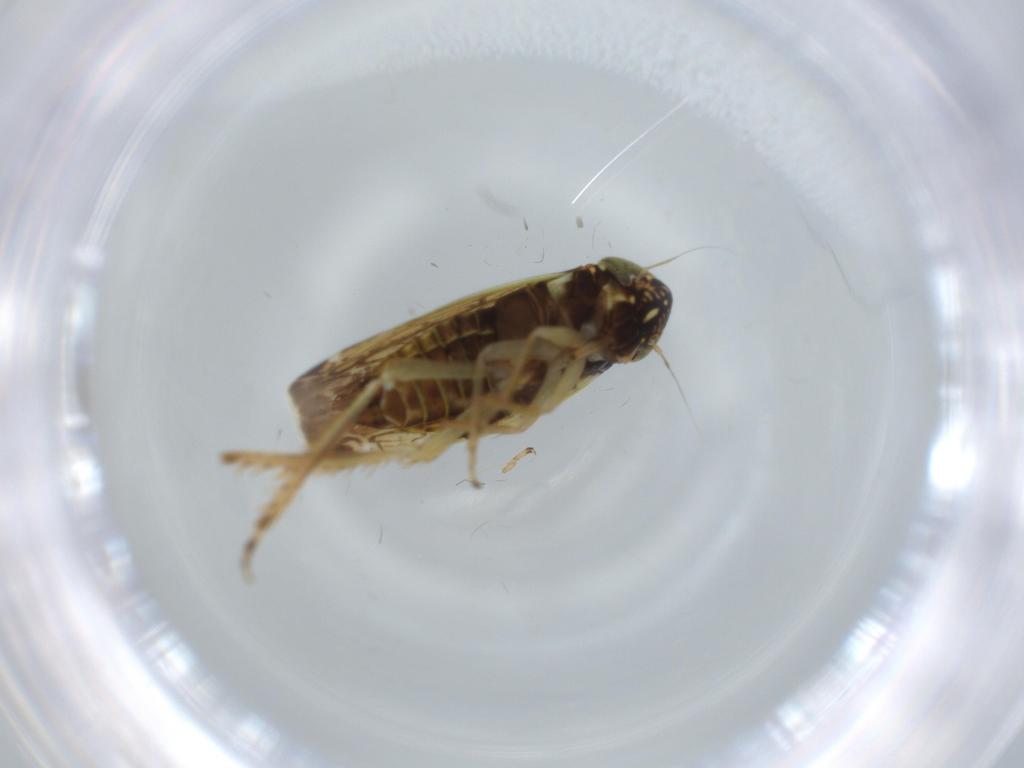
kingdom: Animalia
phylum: Arthropoda
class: Insecta
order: Hemiptera
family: Cicadellidae
